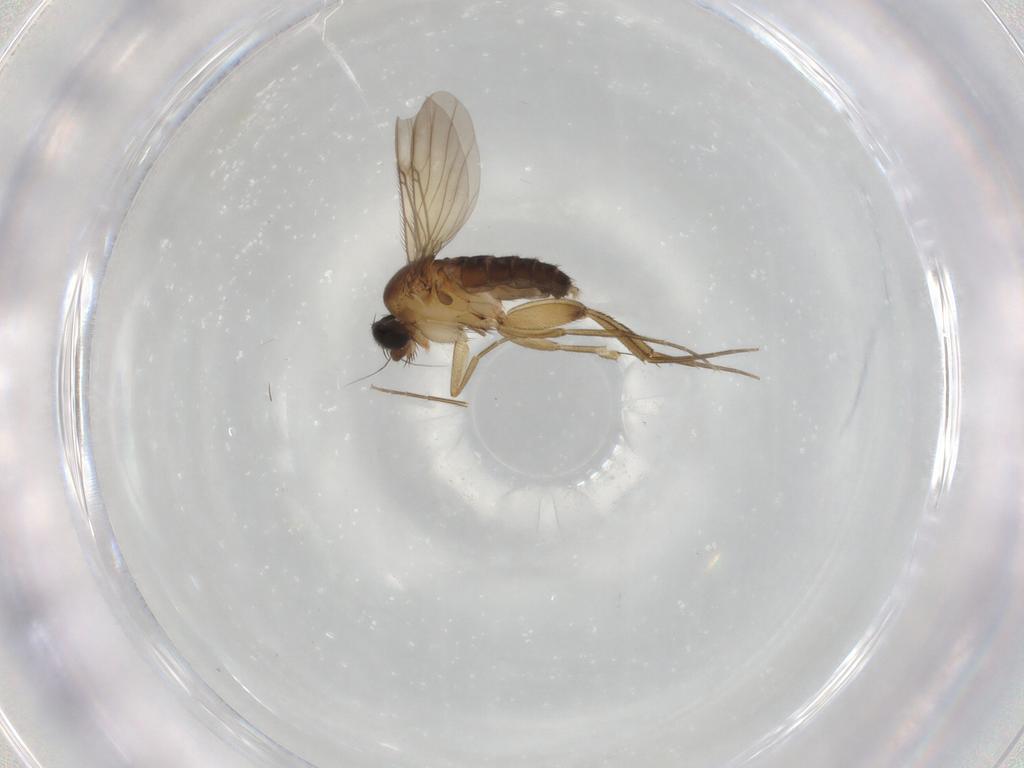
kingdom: Animalia
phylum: Arthropoda
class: Insecta
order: Diptera
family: Phoridae
